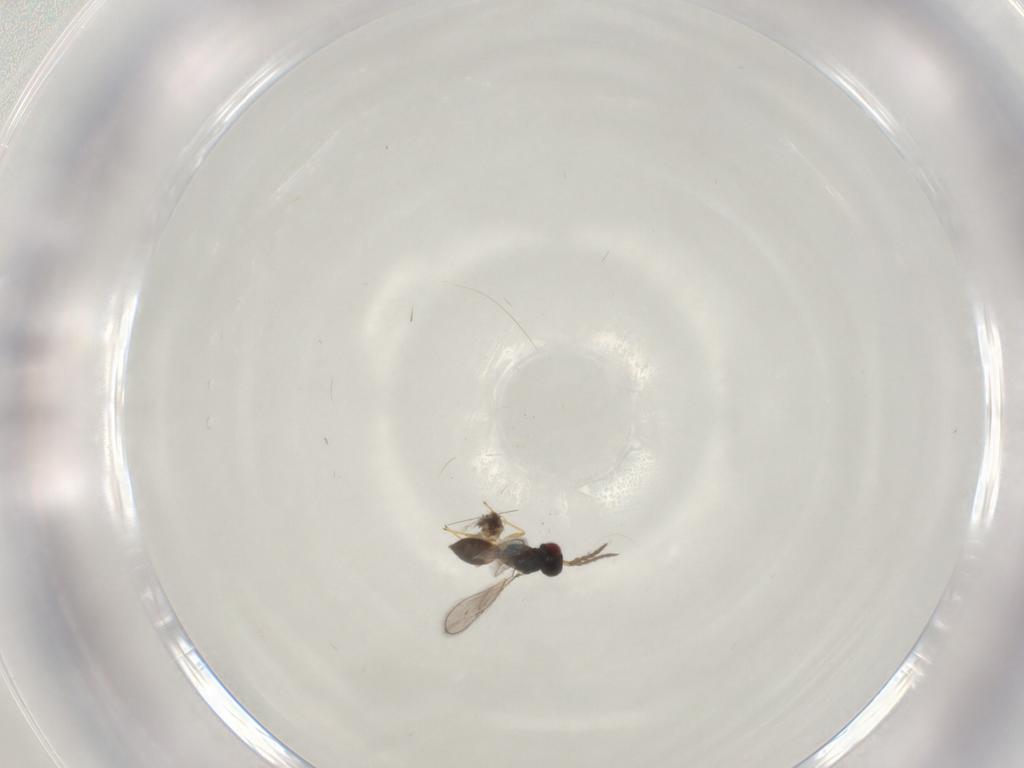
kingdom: Animalia
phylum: Arthropoda
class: Insecta
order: Hymenoptera
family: Eulophidae
